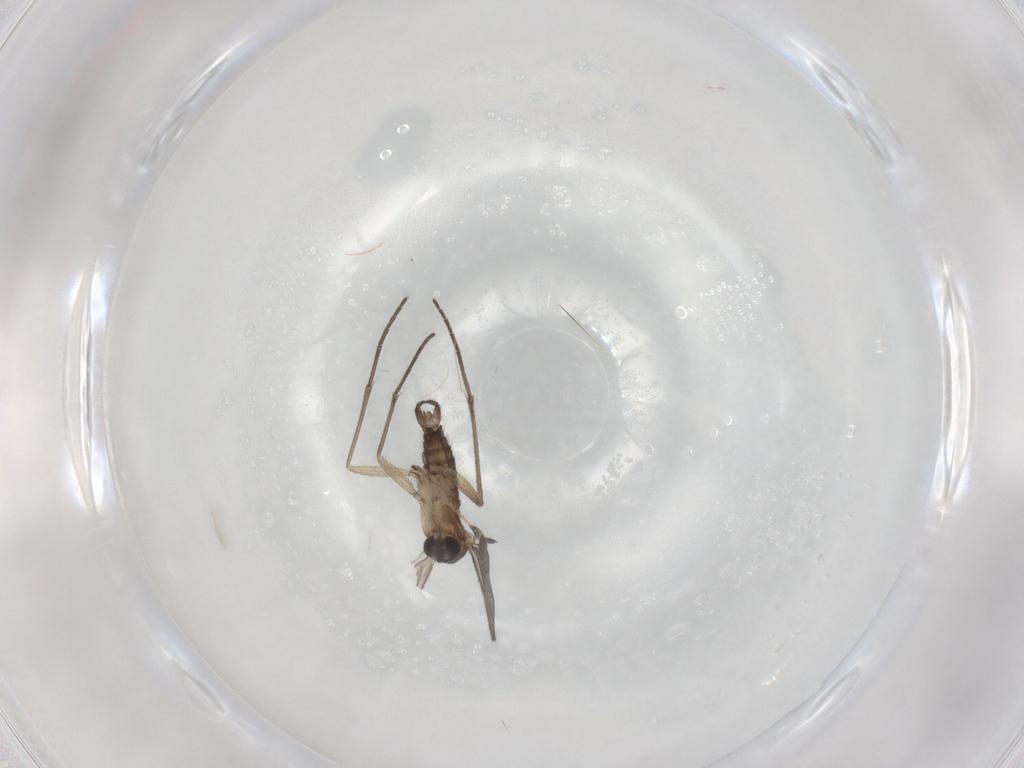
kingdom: Animalia
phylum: Arthropoda
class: Insecta
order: Diptera
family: Sciaridae
